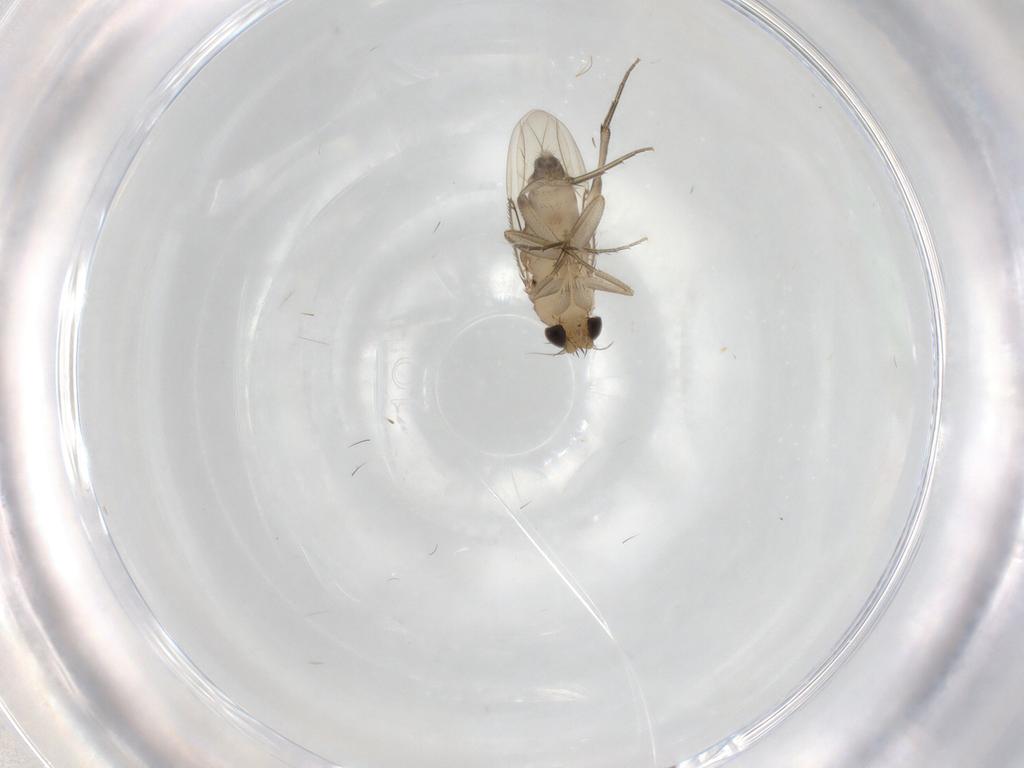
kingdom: Animalia
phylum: Arthropoda
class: Insecta
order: Diptera
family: Phoridae
